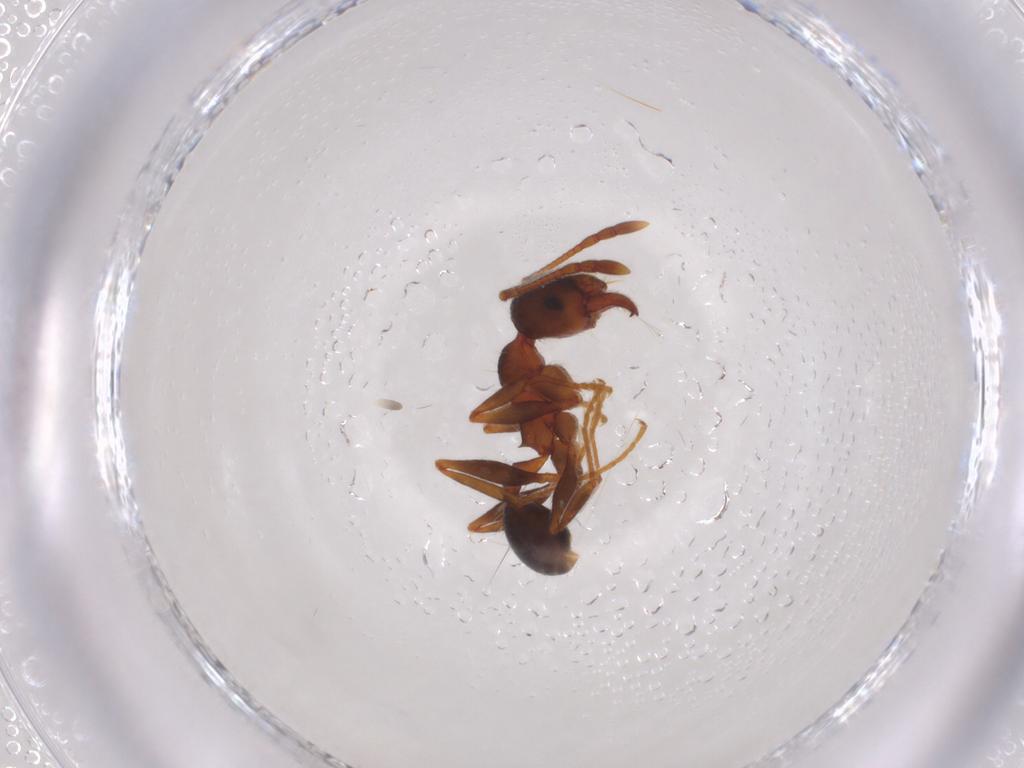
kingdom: Animalia
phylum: Arthropoda
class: Insecta
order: Hymenoptera
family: Formicidae
